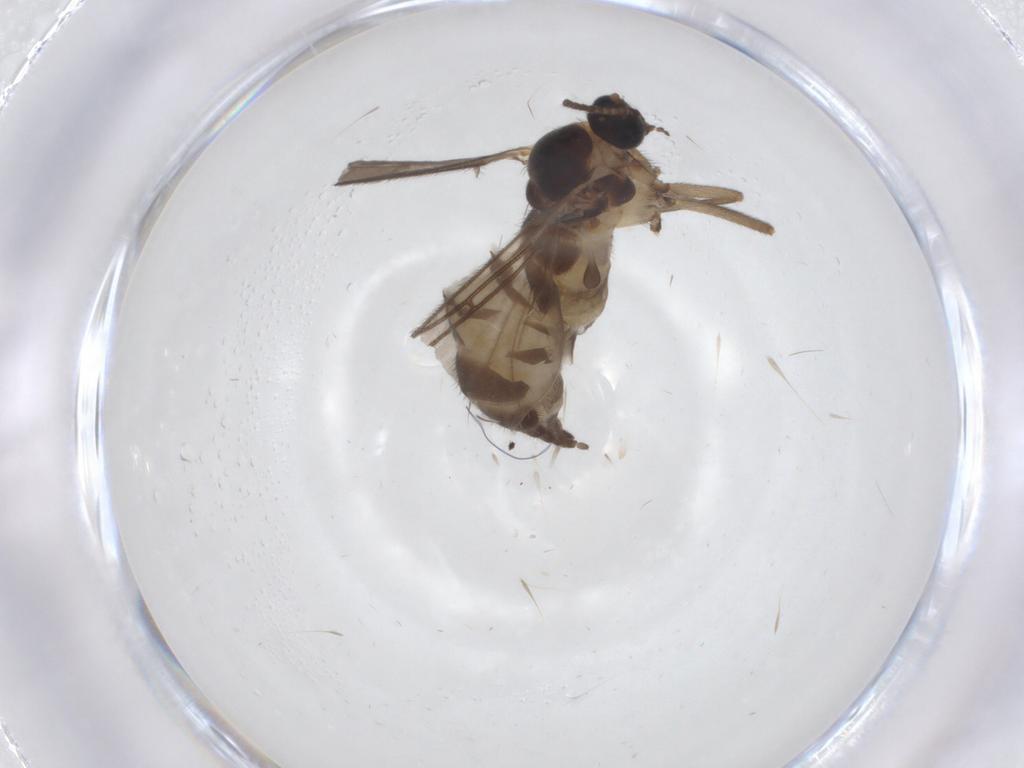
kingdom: Animalia
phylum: Arthropoda
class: Insecta
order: Diptera
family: Sciaridae
